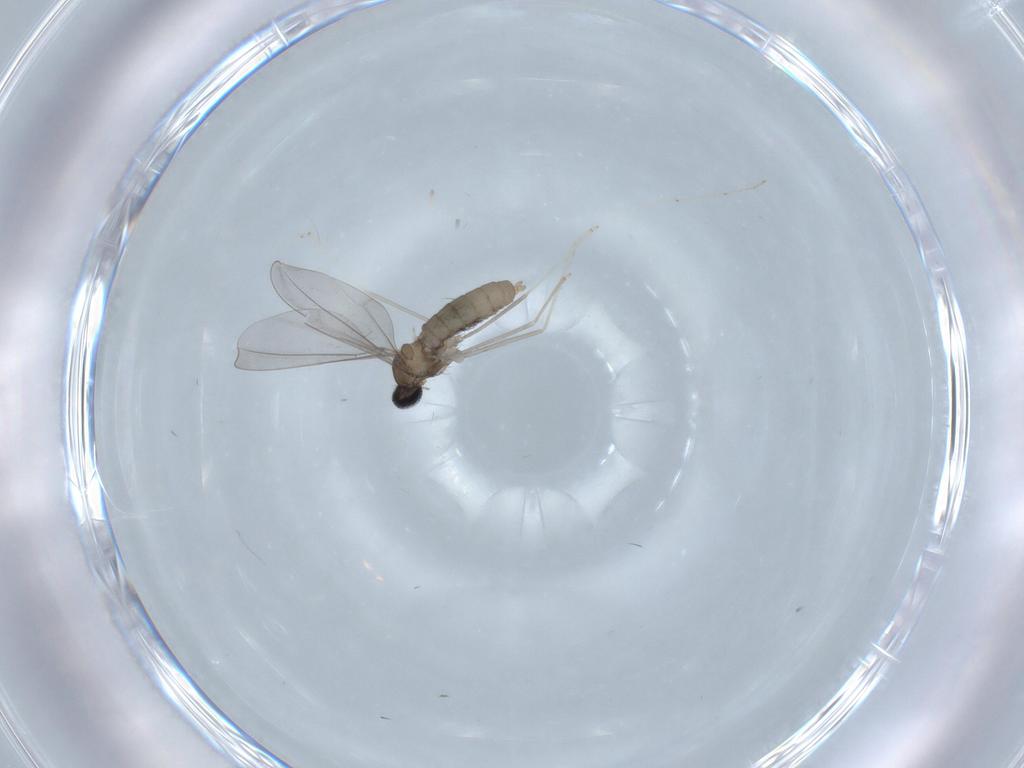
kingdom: Animalia
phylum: Arthropoda
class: Insecta
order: Diptera
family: Cecidomyiidae
